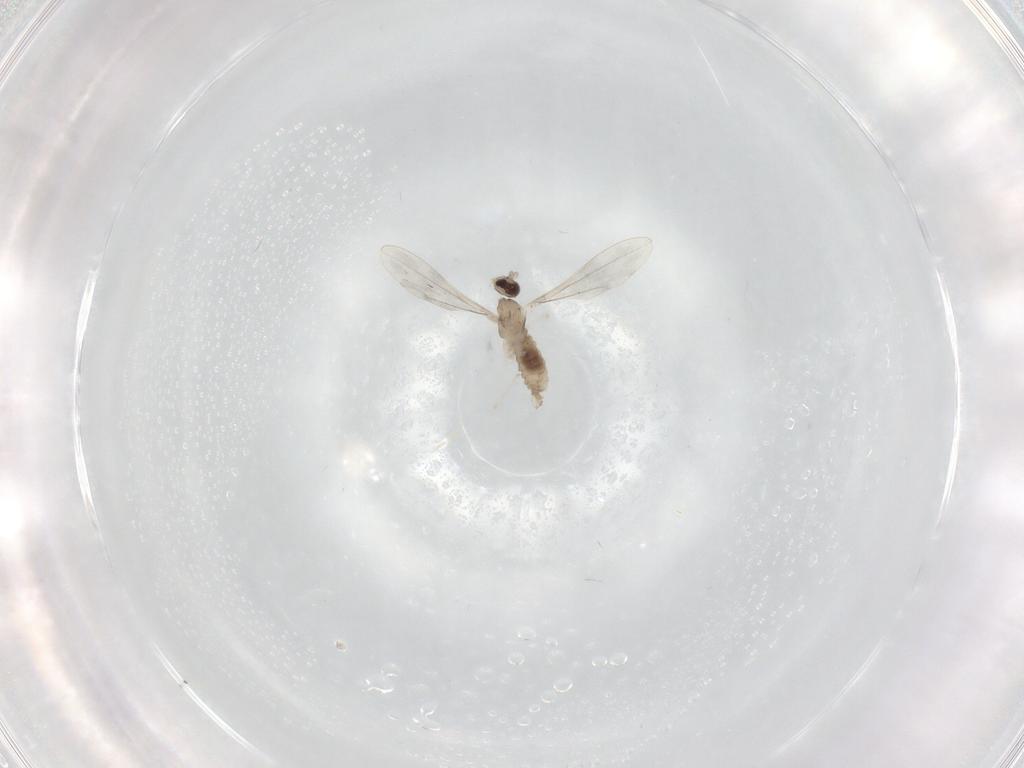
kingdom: Animalia
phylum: Arthropoda
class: Insecta
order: Diptera
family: Cecidomyiidae
